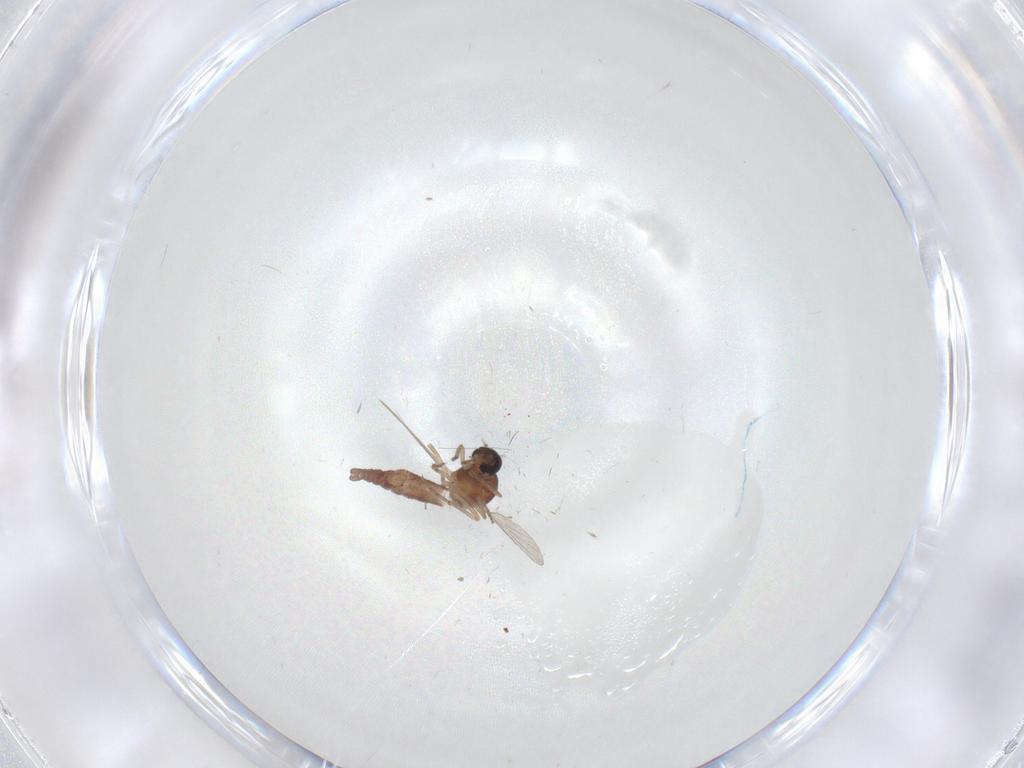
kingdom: Animalia
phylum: Arthropoda
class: Insecta
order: Diptera
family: Ceratopogonidae
